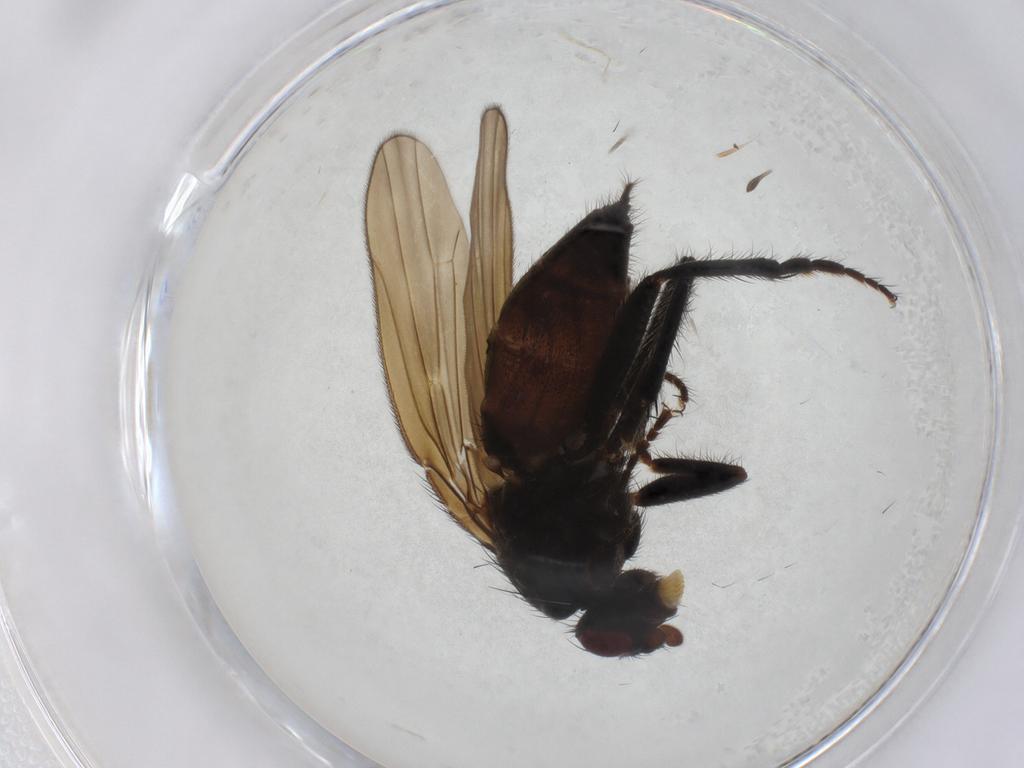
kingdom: Animalia
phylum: Arthropoda
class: Insecta
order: Diptera
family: Sphaeroceridae
